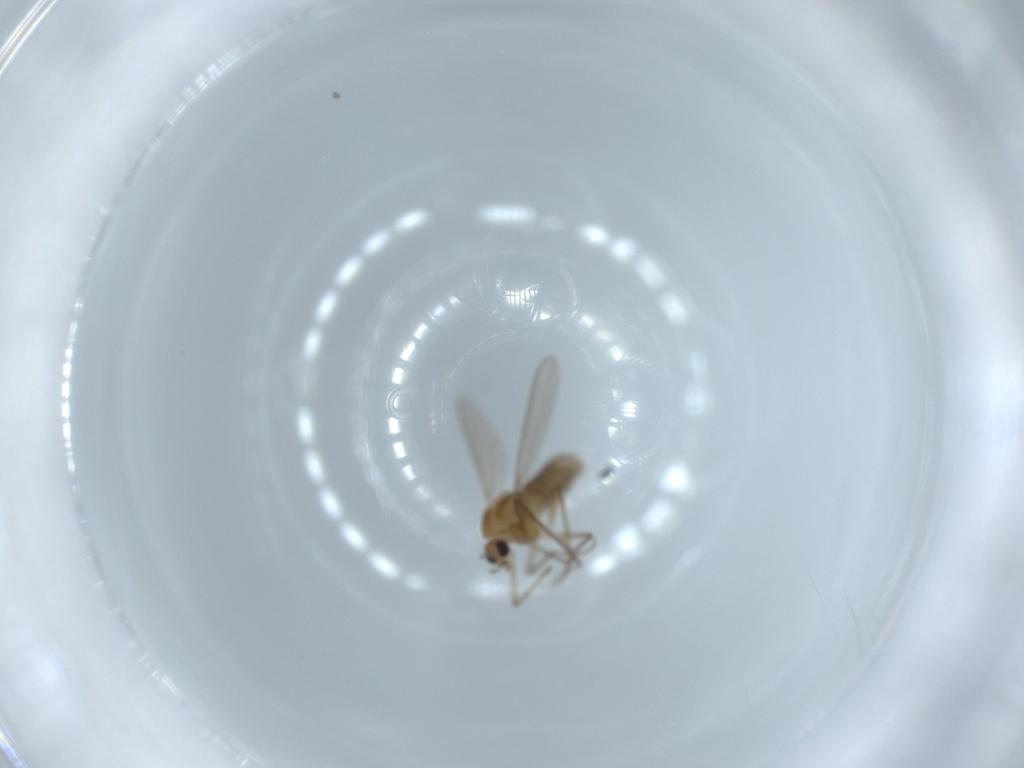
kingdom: Animalia
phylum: Arthropoda
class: Insecta
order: Diptera
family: Chironomidae
